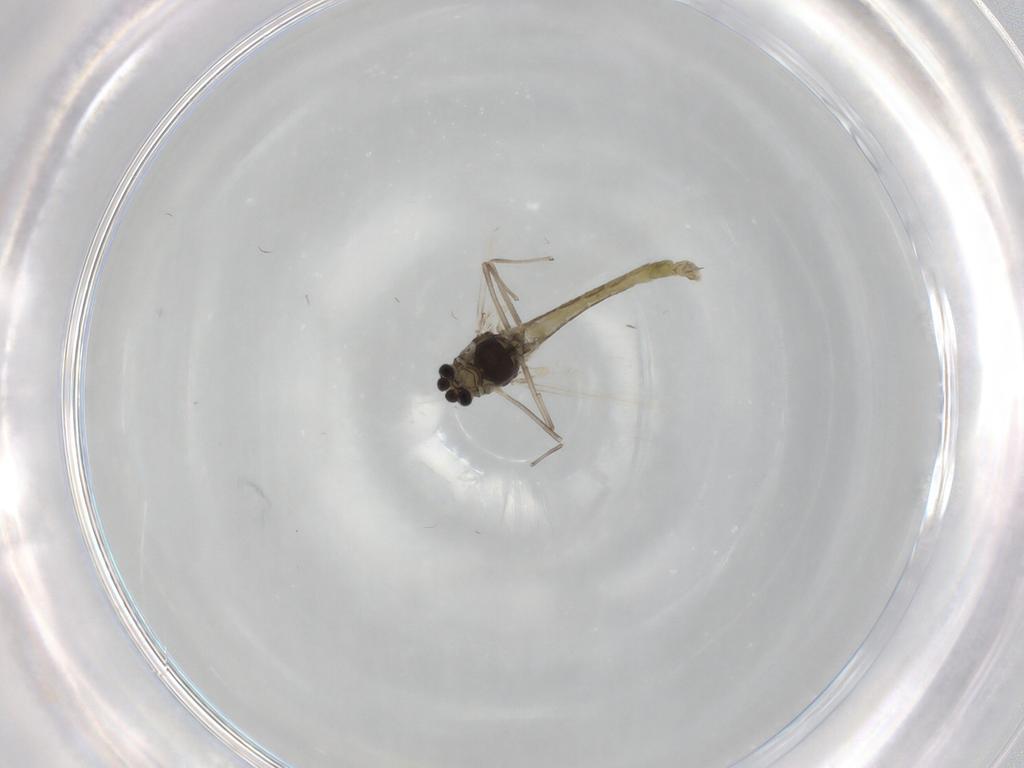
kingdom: Animalia
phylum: Arthropoda
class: Insecta
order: Diptera
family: Chironomidae
